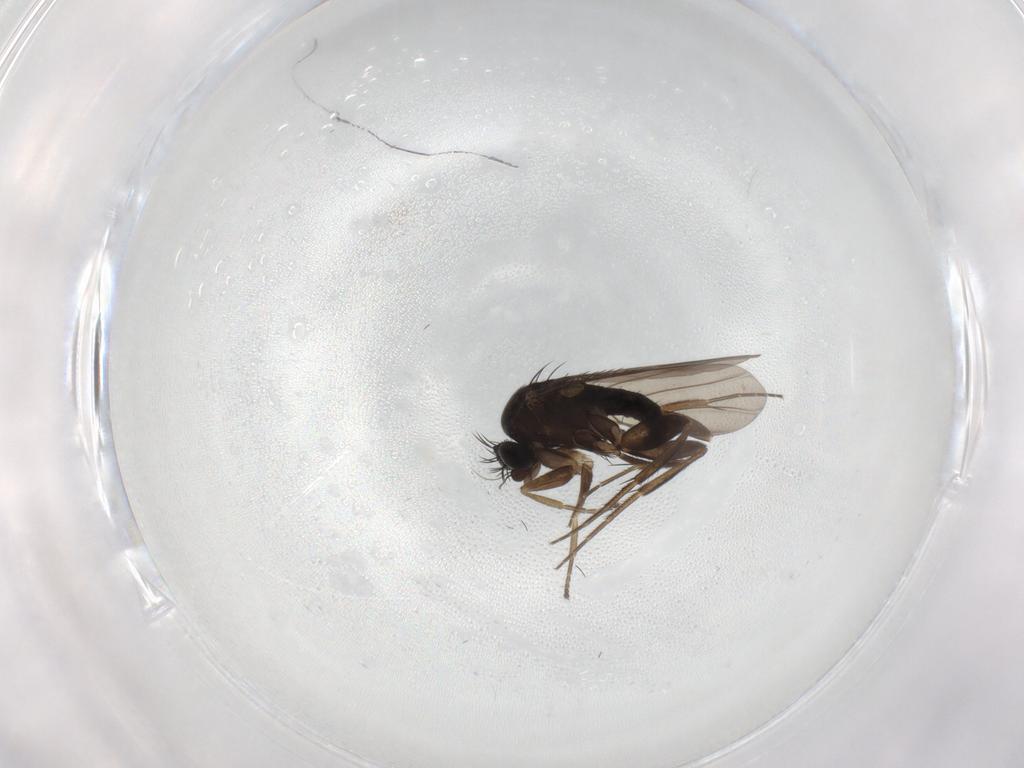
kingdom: Animalia
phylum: Arthropoda
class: Insecta
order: Diptera
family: Phoridae
